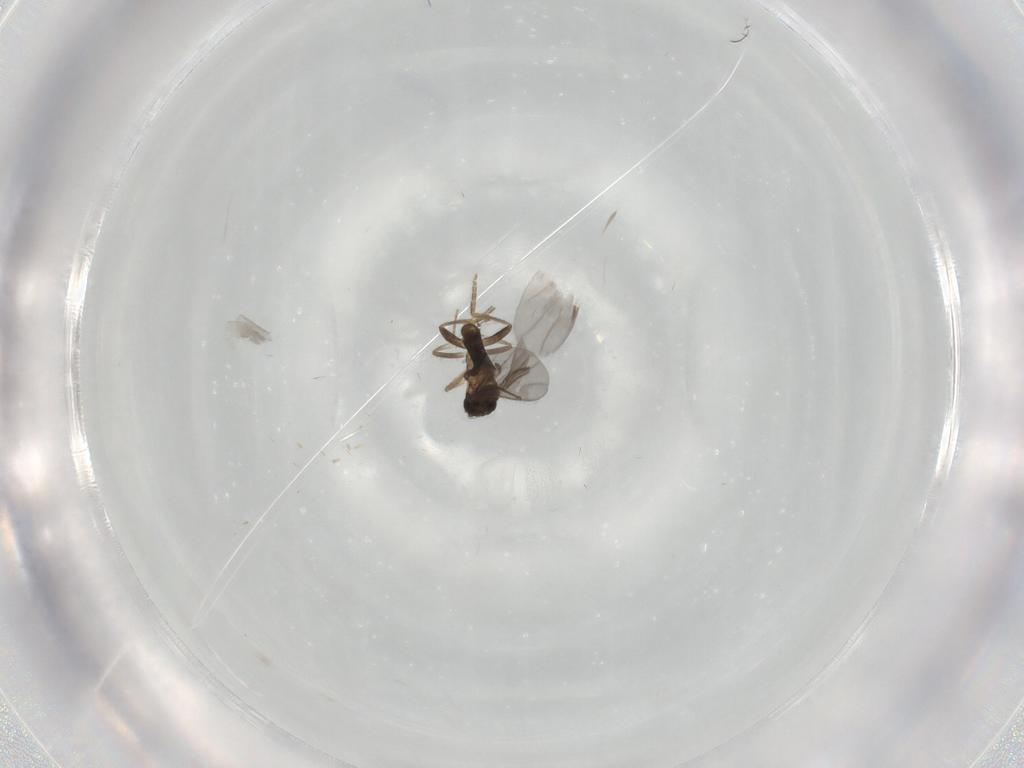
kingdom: Animalia
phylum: Arthropoda
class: Insecta
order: Diptera
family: Cecidomyiidae
